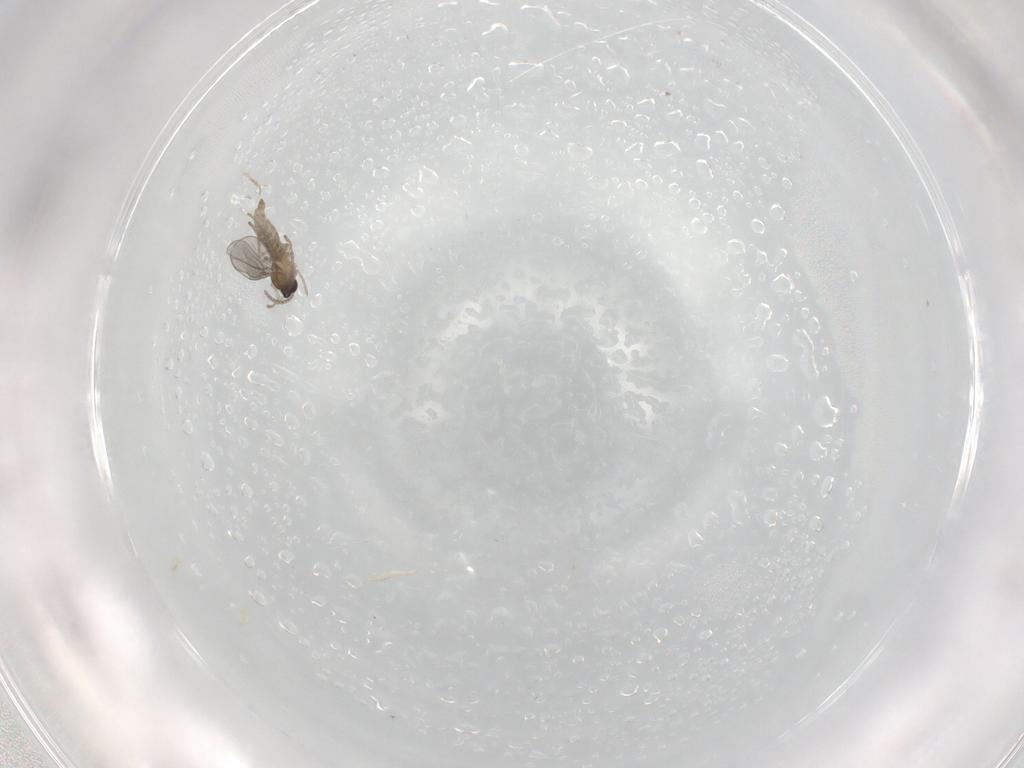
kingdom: Animalia
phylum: Arthropoda
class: Insecta
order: Diptera
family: Cecidomyiidae
